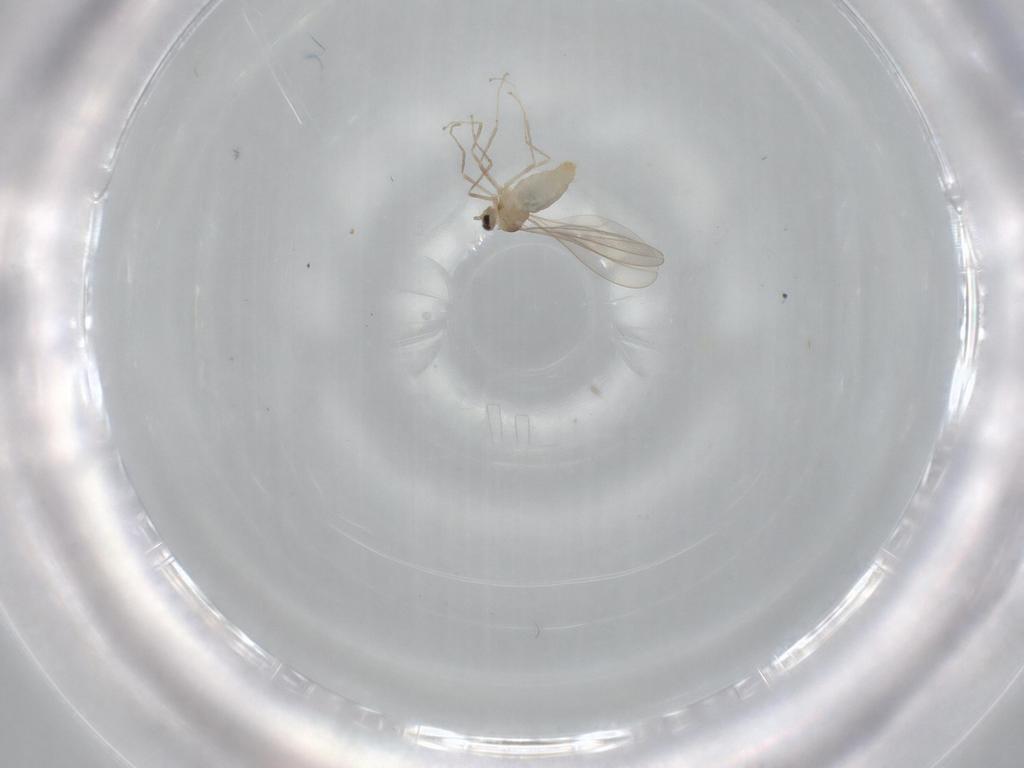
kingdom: Animalia
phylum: Arthropoda
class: Insecta
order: Diptera
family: Cecidomyiidae
